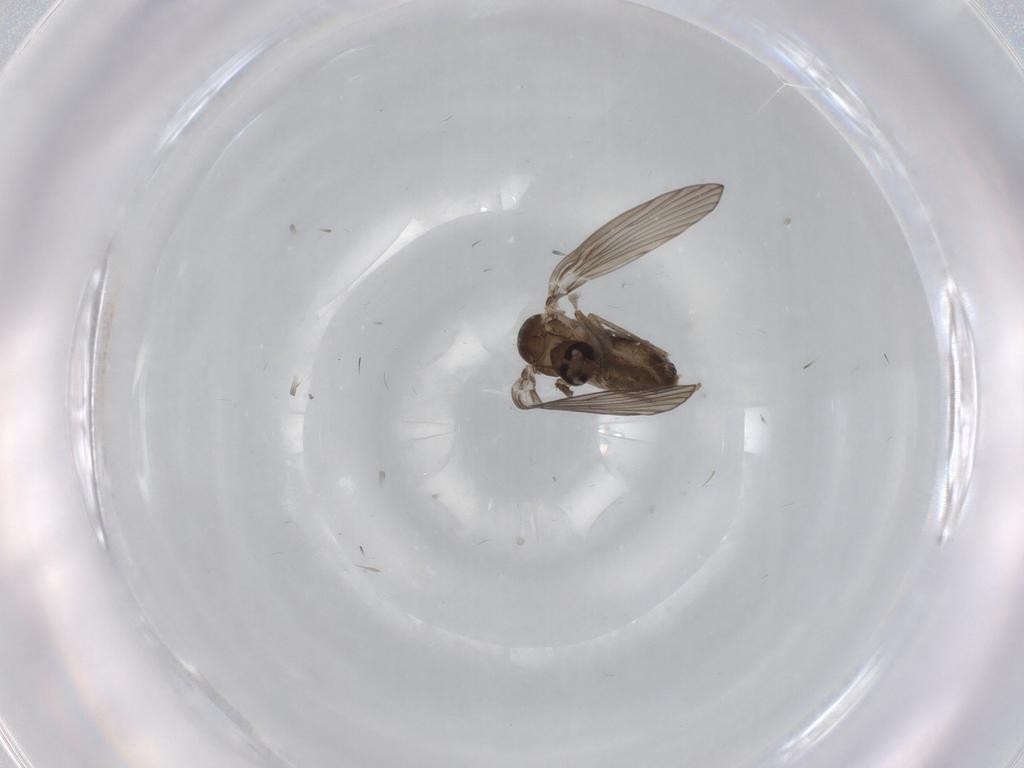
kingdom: Animalia
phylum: Arthropoda
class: Insecta
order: Diptera
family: Psychodidae
